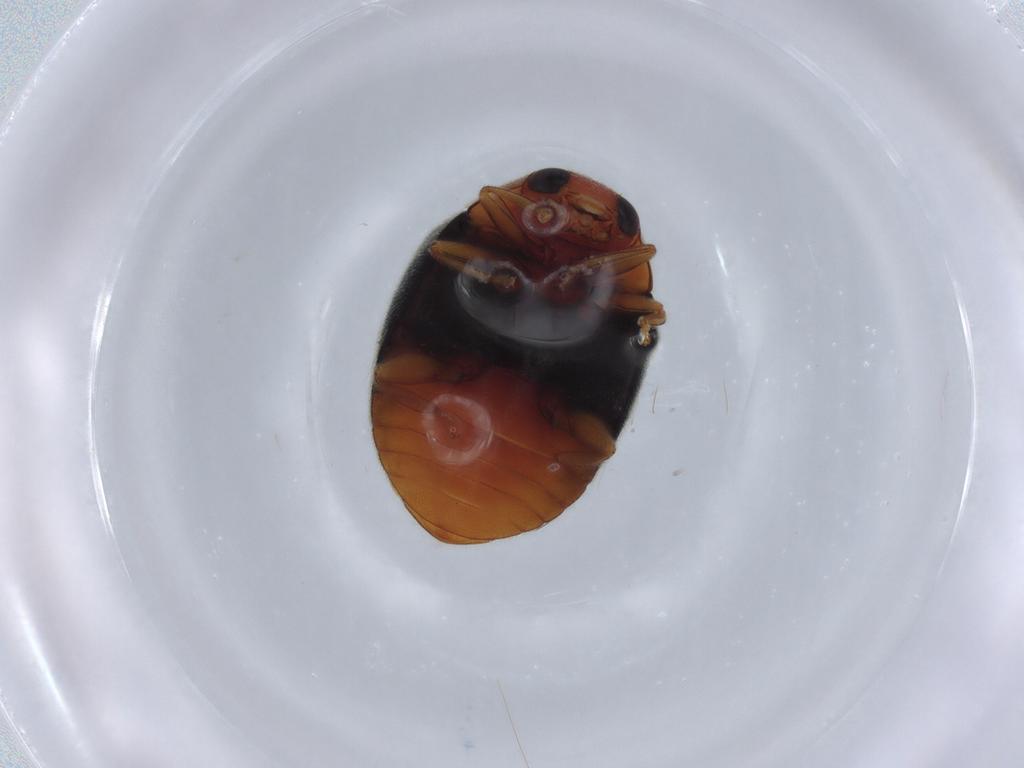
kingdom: Animalia
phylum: Arthropoda
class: Insecta
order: Coleoptera
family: Coccinellidae
